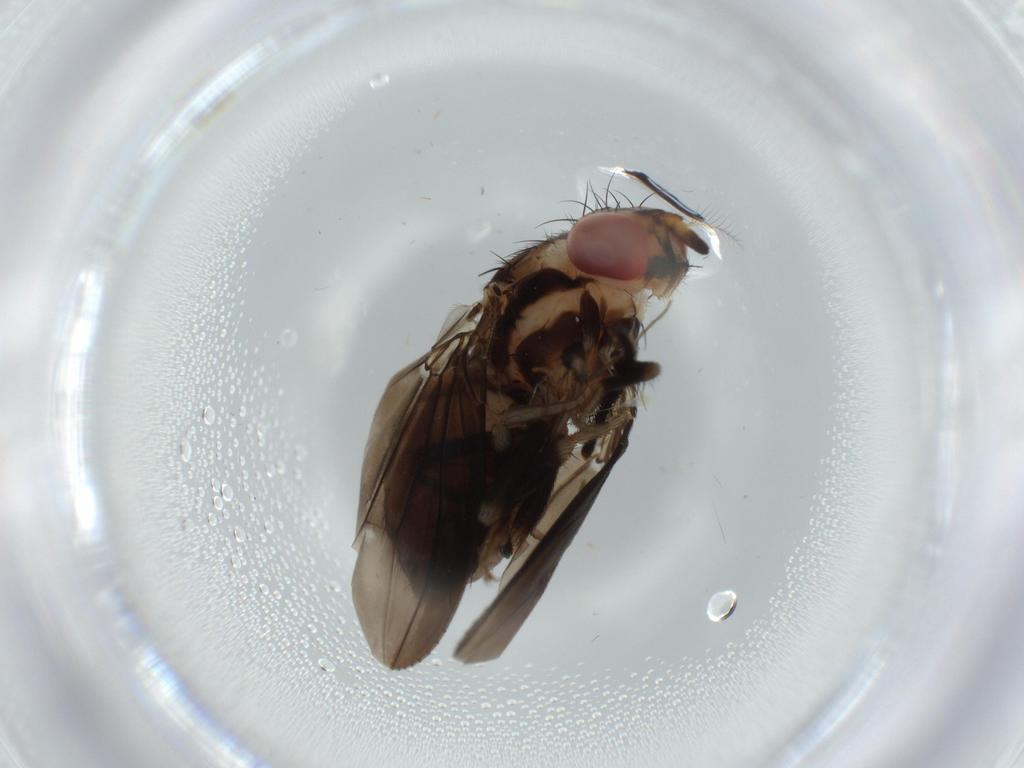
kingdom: Animalia
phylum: Arthropoda
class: Insecta
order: Diptera
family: Chironomidae
